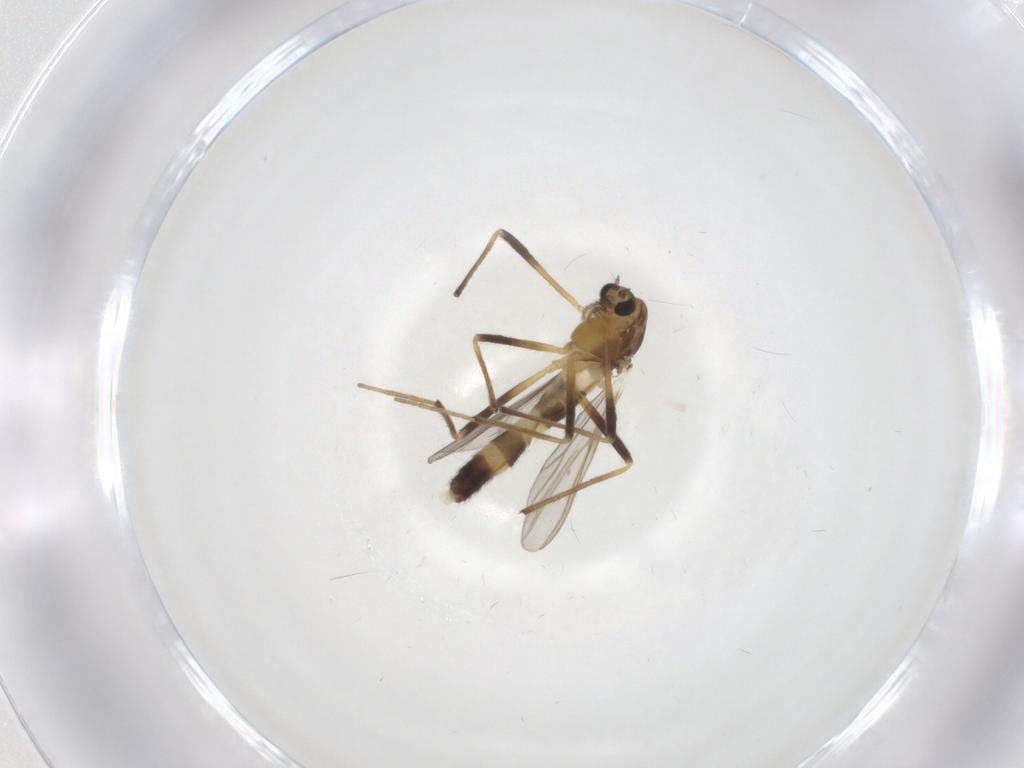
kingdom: Animalia
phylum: Arthropoda
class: Insecta
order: Diptera
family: Chironomidae
